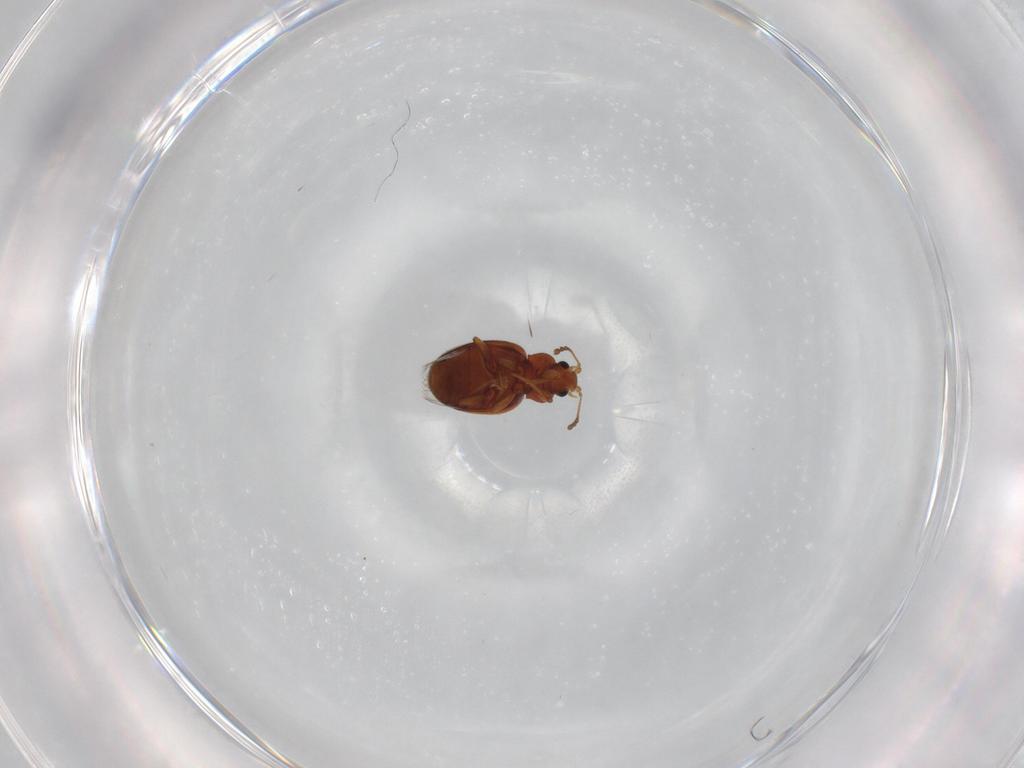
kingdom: Animalia
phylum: Arthropoda
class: Insecta
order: Coleoptera
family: Latridiidae
